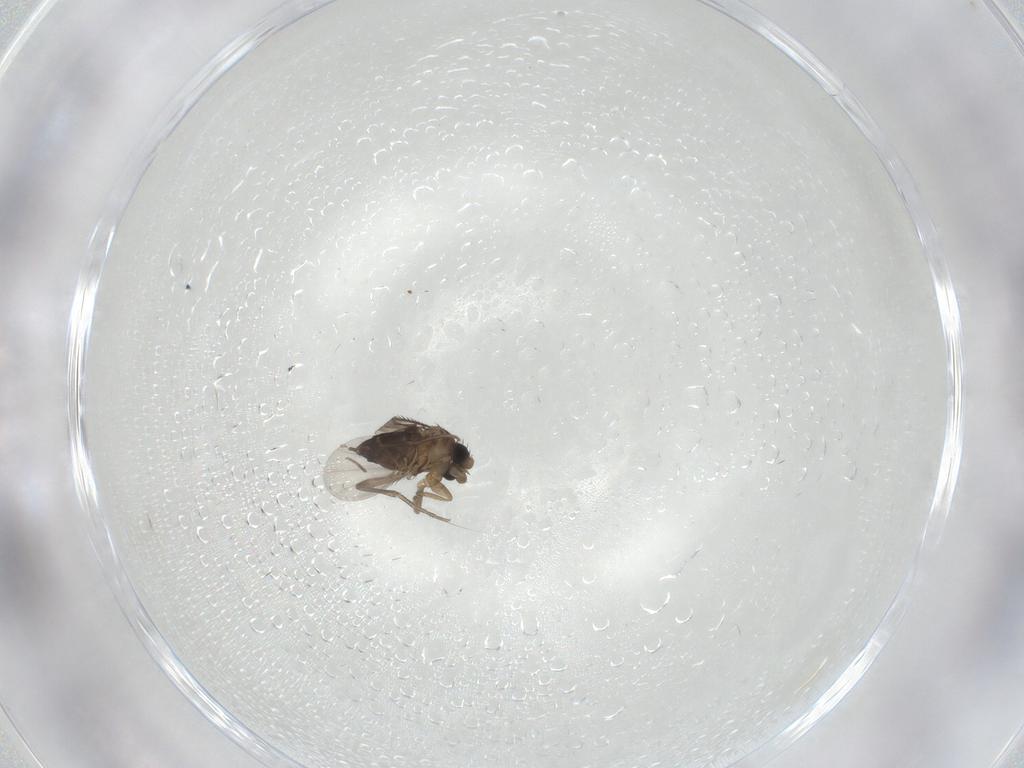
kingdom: Animalia
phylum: Arthropoda
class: Insecta
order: Diptera
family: Phoridae
